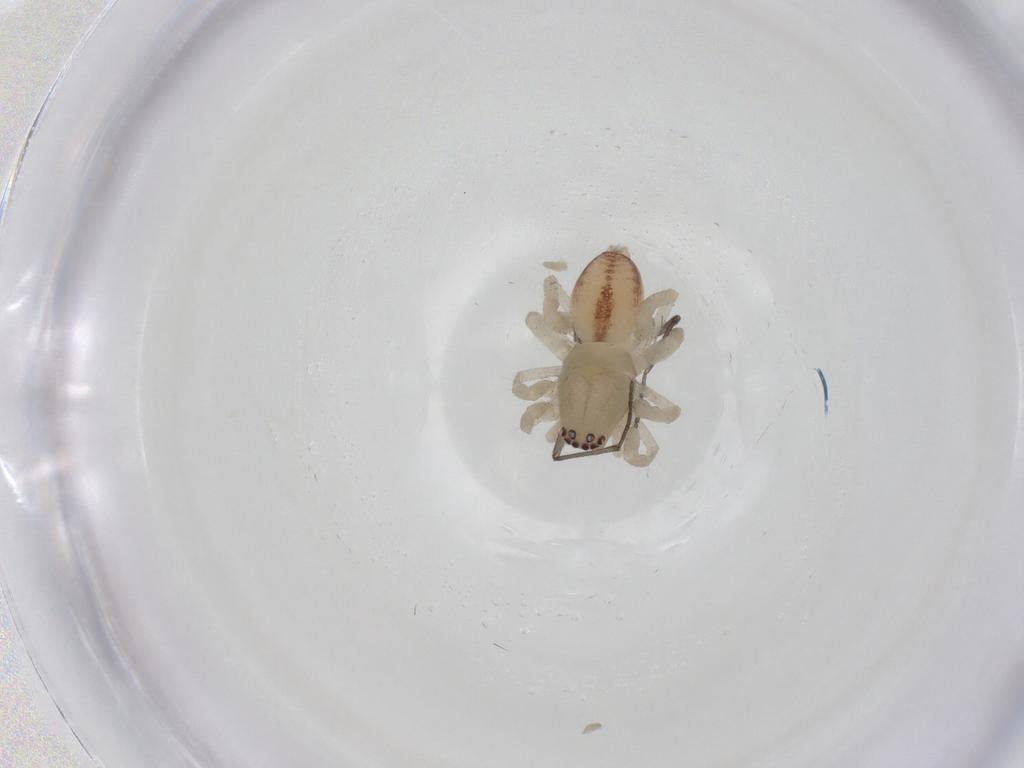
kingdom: Animalia
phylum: Arthropoda
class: Arachnida
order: Araneae
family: Clubionidae
